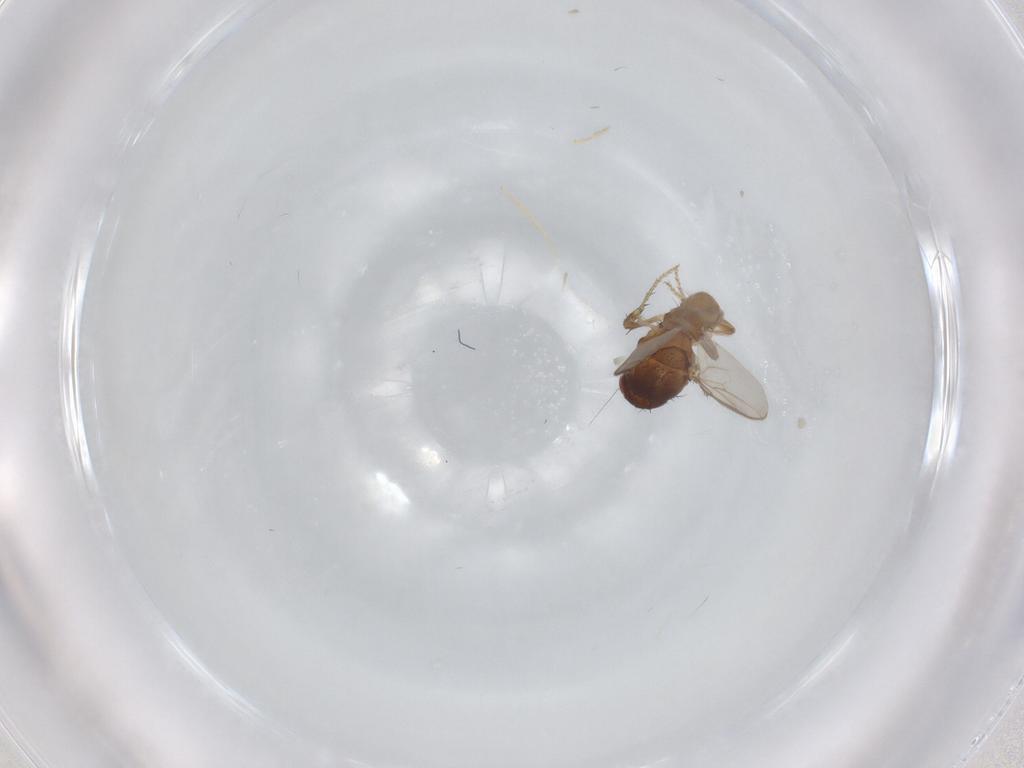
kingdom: Animalia
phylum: Arthropoda
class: Insecta
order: Diptera
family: Sphaeroceridae
